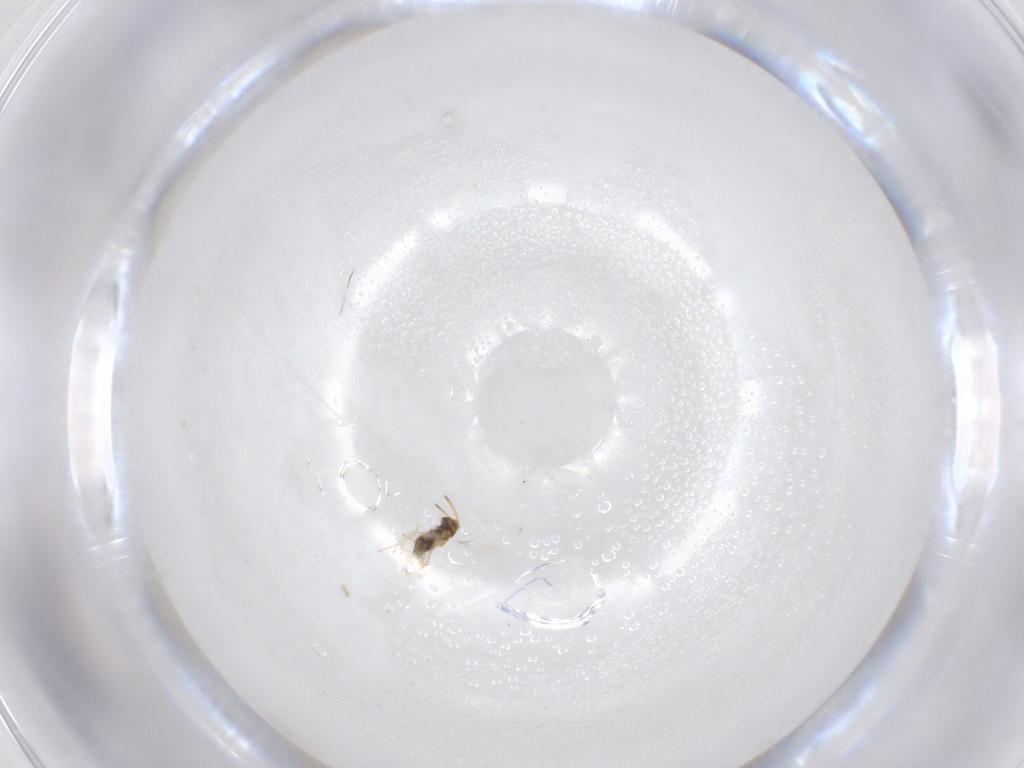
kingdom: Animalia
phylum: Arthropoda
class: Insecta
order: Hymenoptera
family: Aphelinidae
